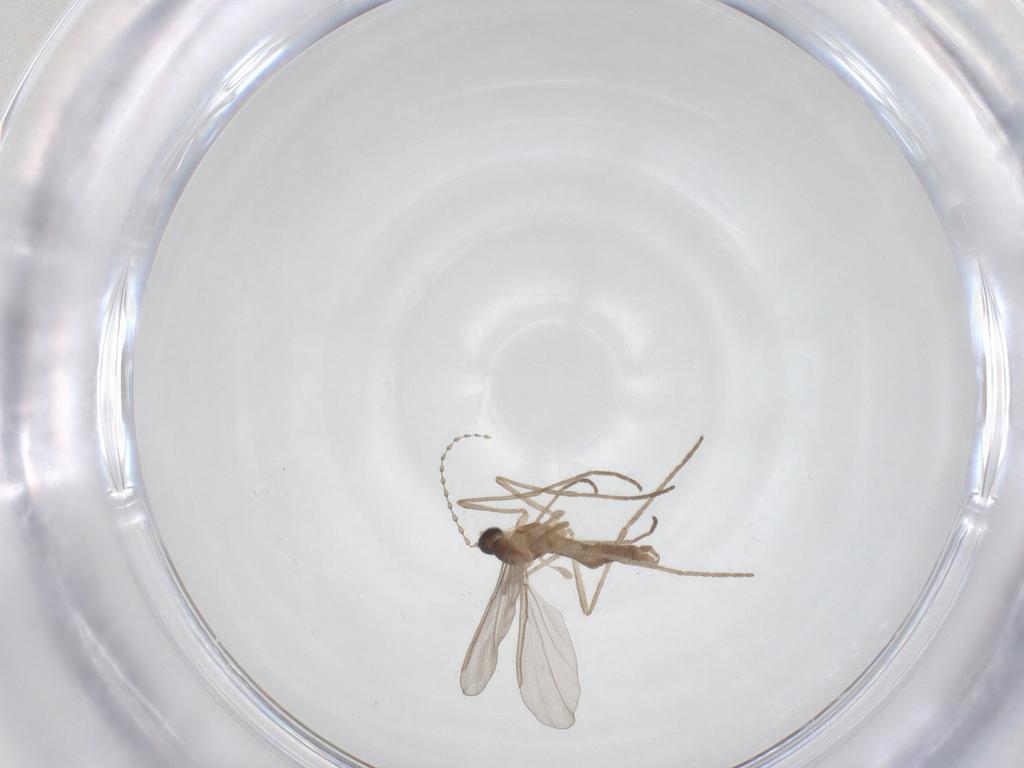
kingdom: Animalia
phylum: Arthropoda
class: Insecta
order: Diptera
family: Cecidomyiidae
